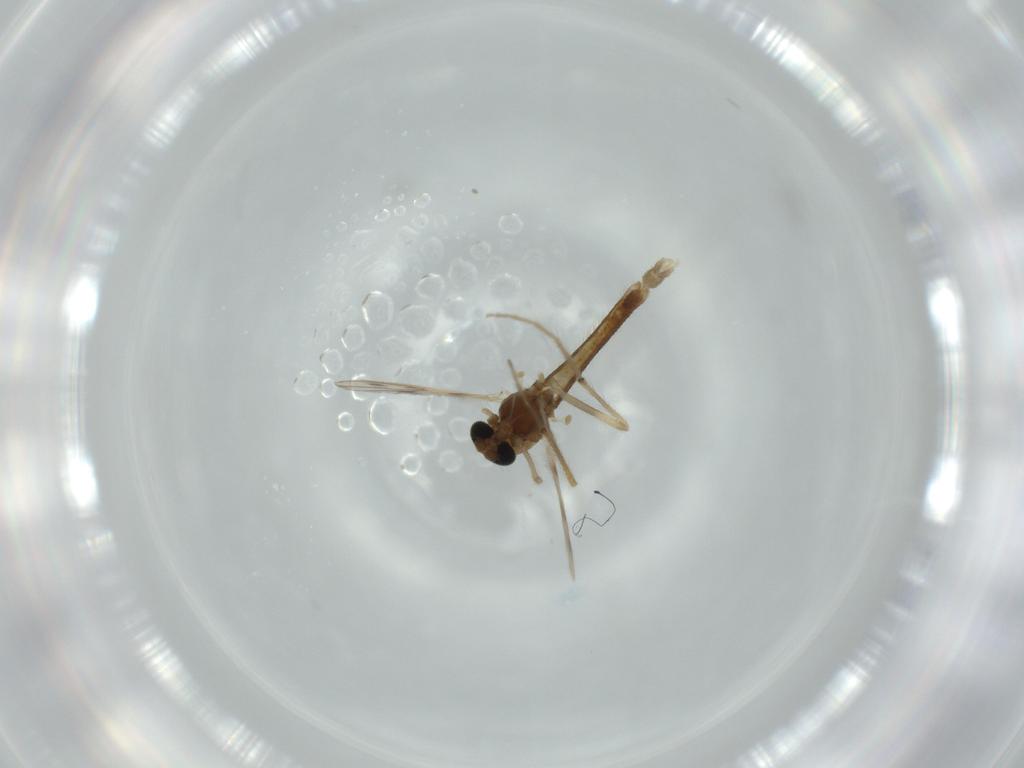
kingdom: Animalia
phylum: Arthropoda
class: Insecta
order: Diptera
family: Chironomidae
